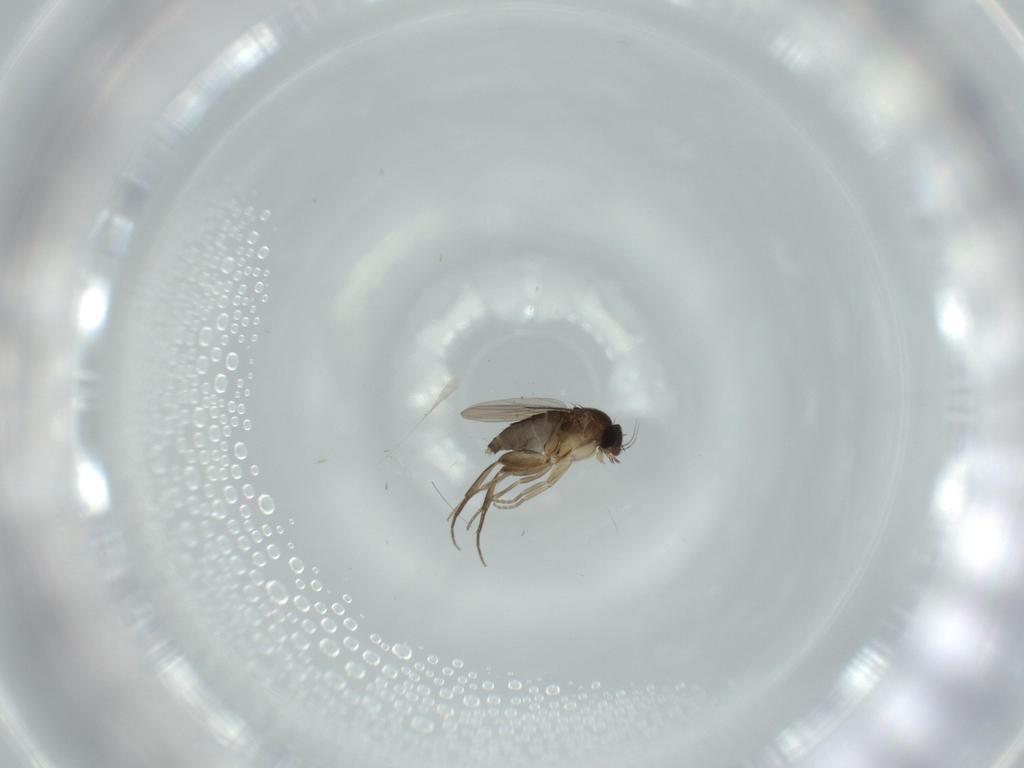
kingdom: Animalia
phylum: Arthropoda
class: Insecta
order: Diptera
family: Phoridae
